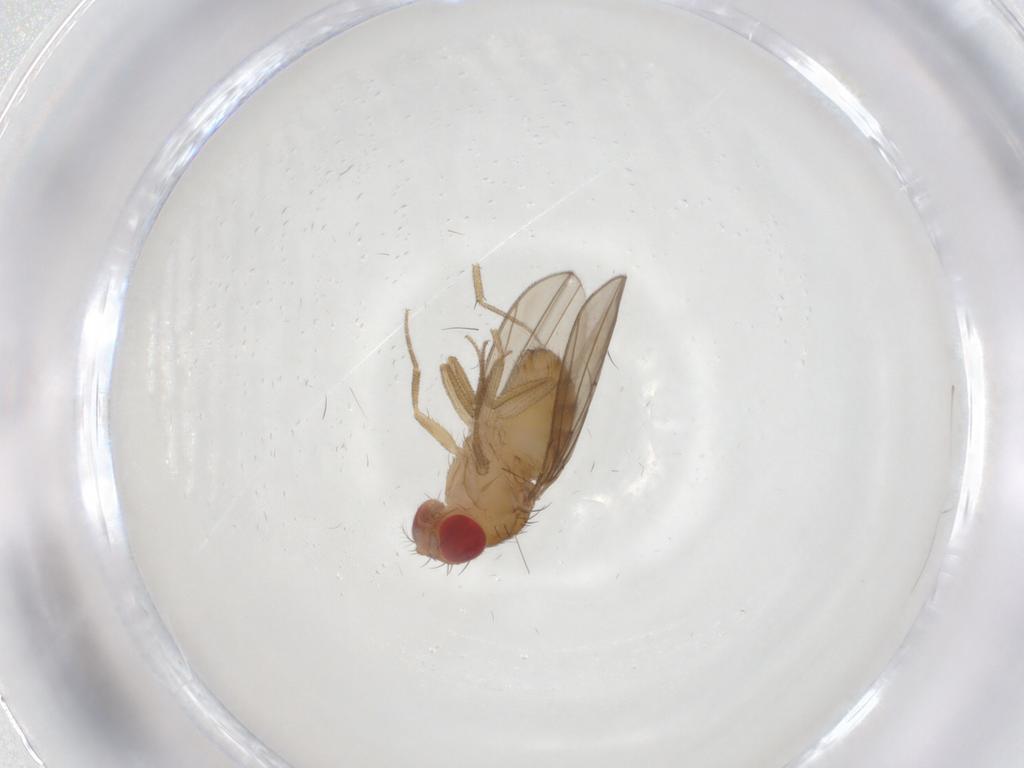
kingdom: Animalia
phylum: Arthropoda
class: Insecta
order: Diptera
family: Drosophilidae
